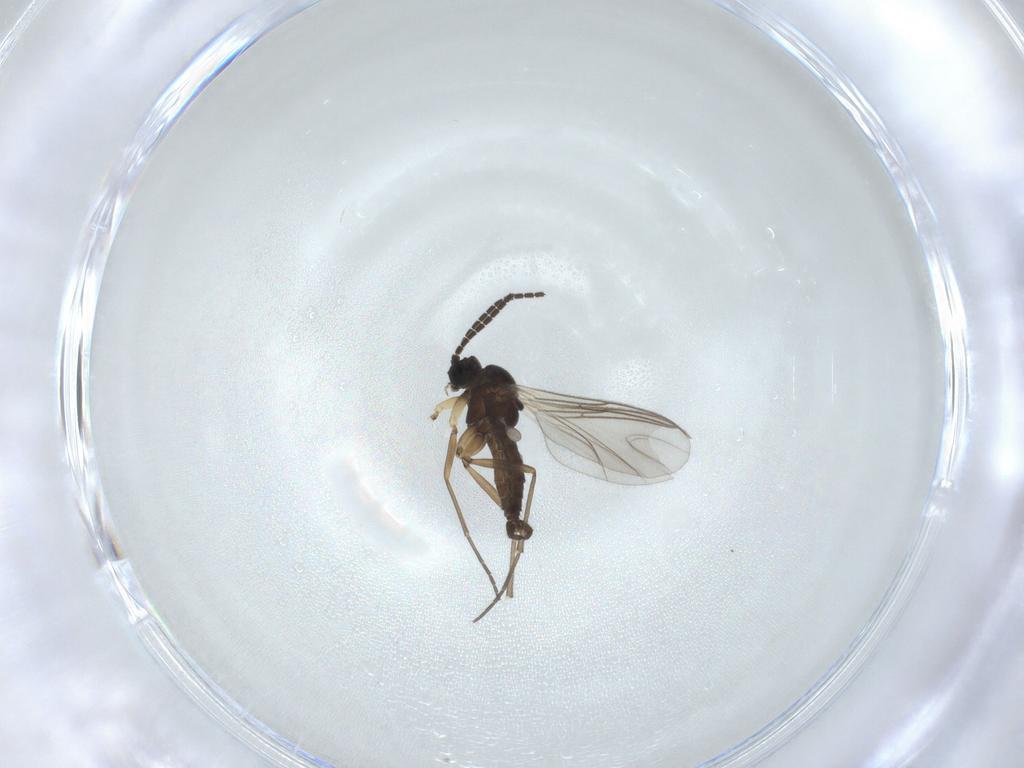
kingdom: Animalia
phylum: Arthropoda
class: Insecta
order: Diptera
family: Sciaridae
